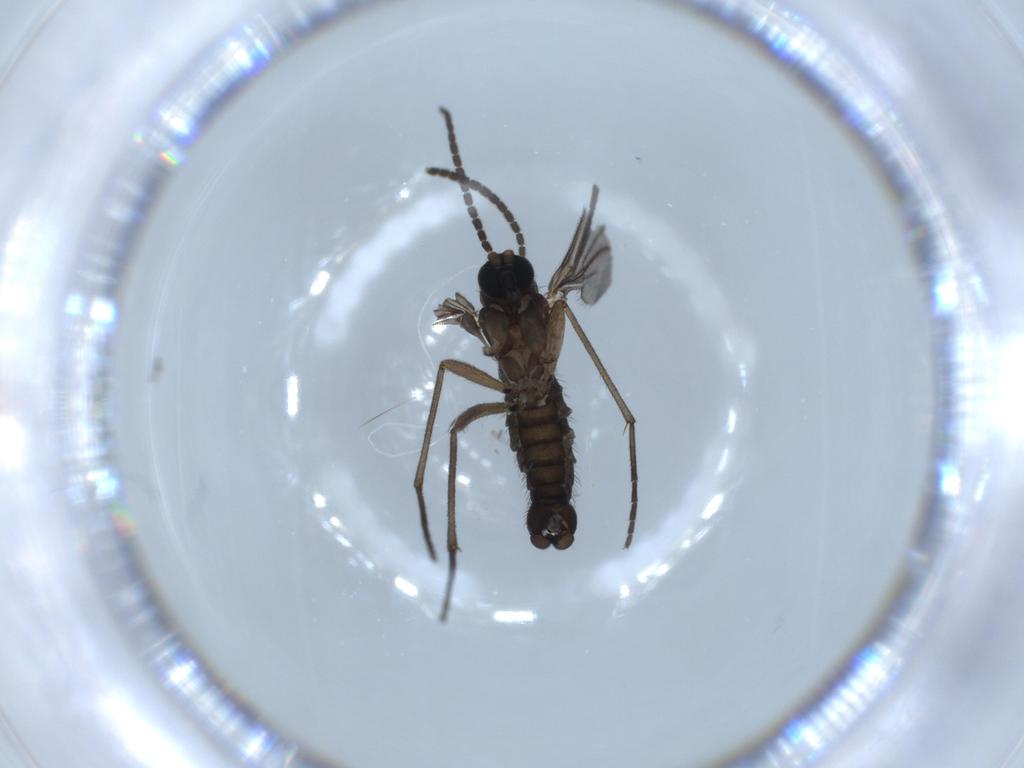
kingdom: Animalia
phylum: Arthropoda
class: Insecta
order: Diptera
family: Sciaridae
